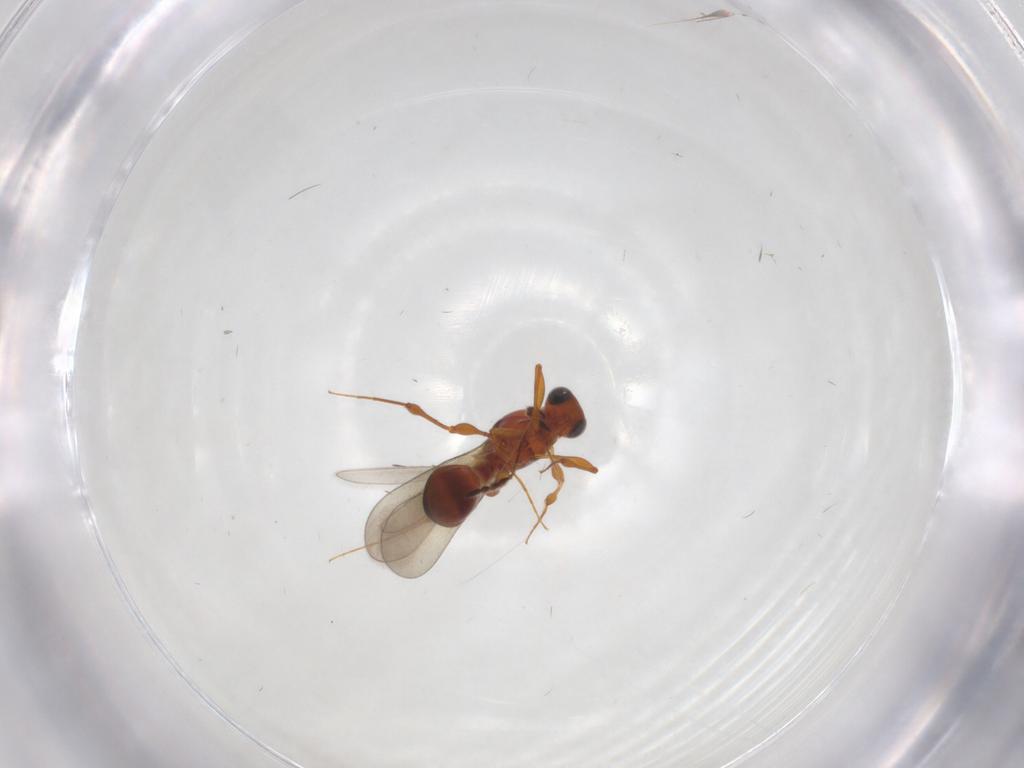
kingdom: Animalia
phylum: Arthropoda
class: Insecta
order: Hymenoptera
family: Platygastridae
